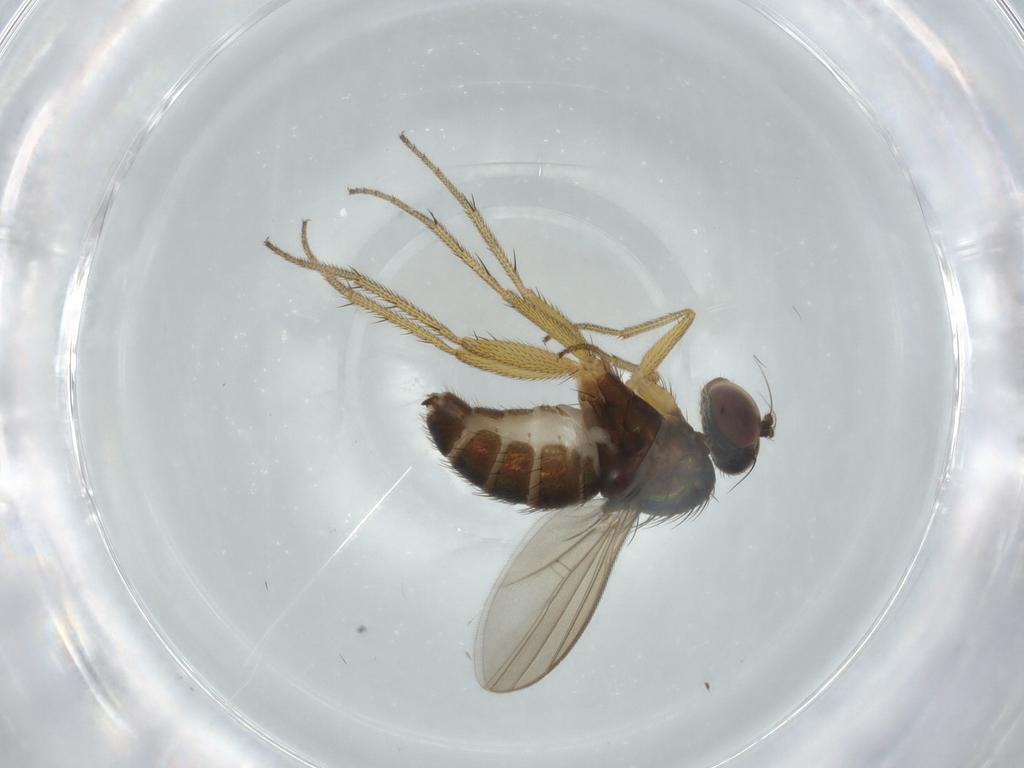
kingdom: Animalia
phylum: Arthropoda
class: Insecta
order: Diptera
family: Dolichopodidae
